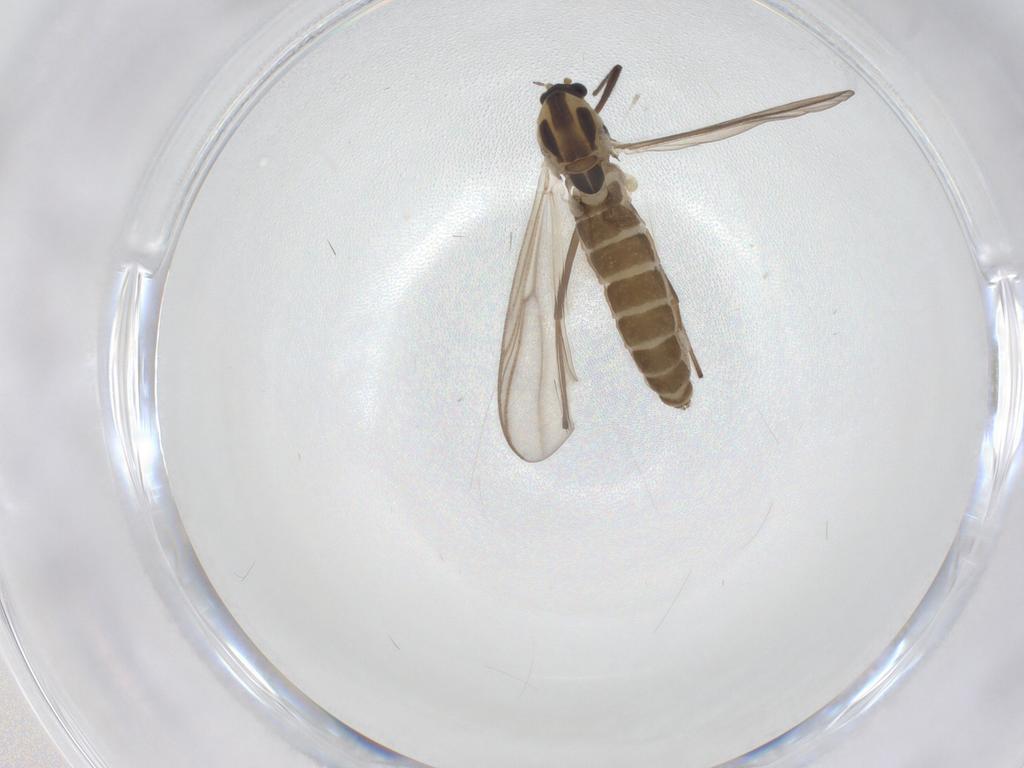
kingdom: Animalia
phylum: Arthropoda
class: Insecta
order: Diptera
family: Chironomidae
